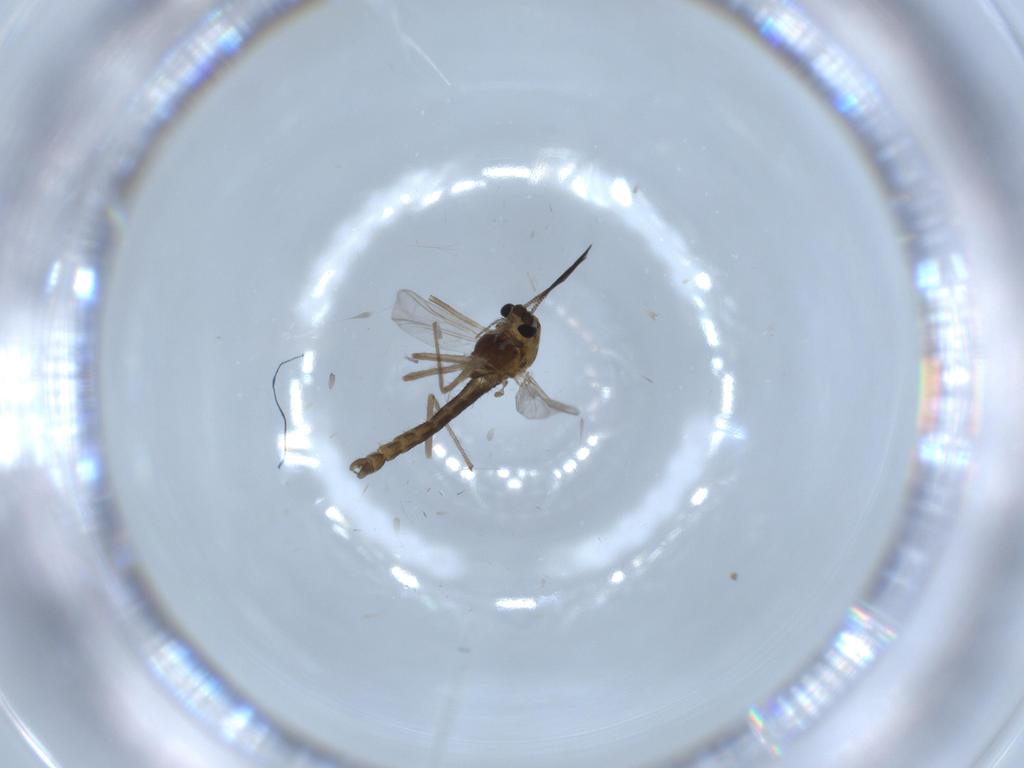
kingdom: Animalia
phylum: Arthropoda
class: Insecta
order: Diptera
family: Chironomidae
